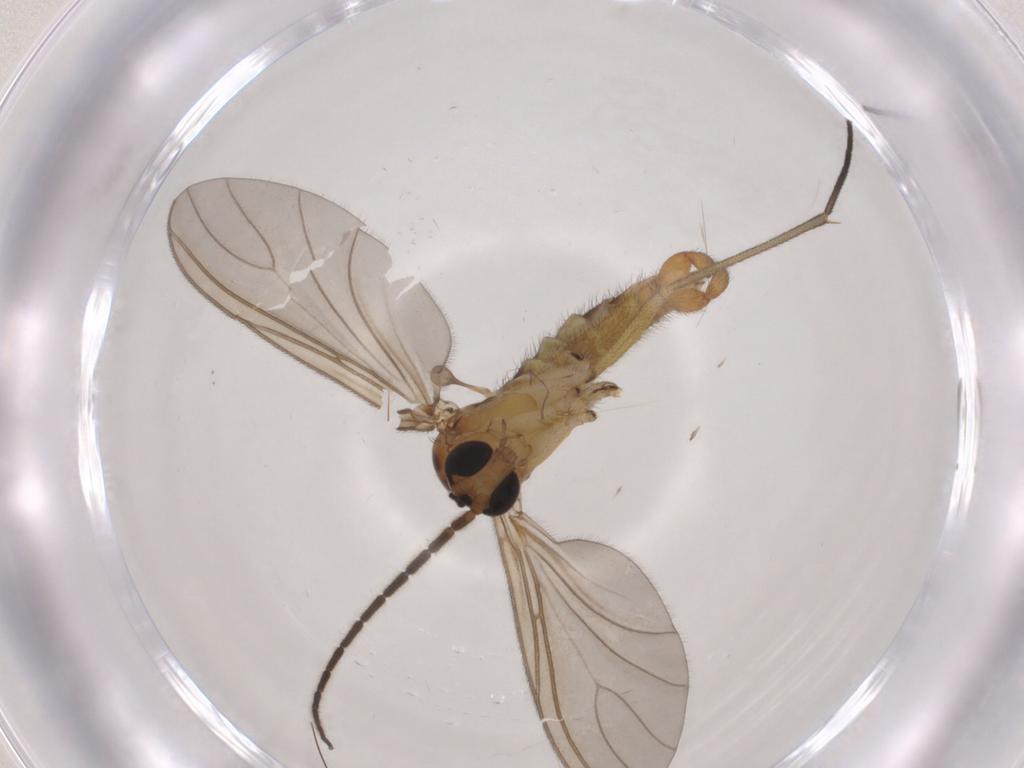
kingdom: Animalia
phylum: Arthropoda
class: Insecta
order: Diptera
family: Sciaridae
